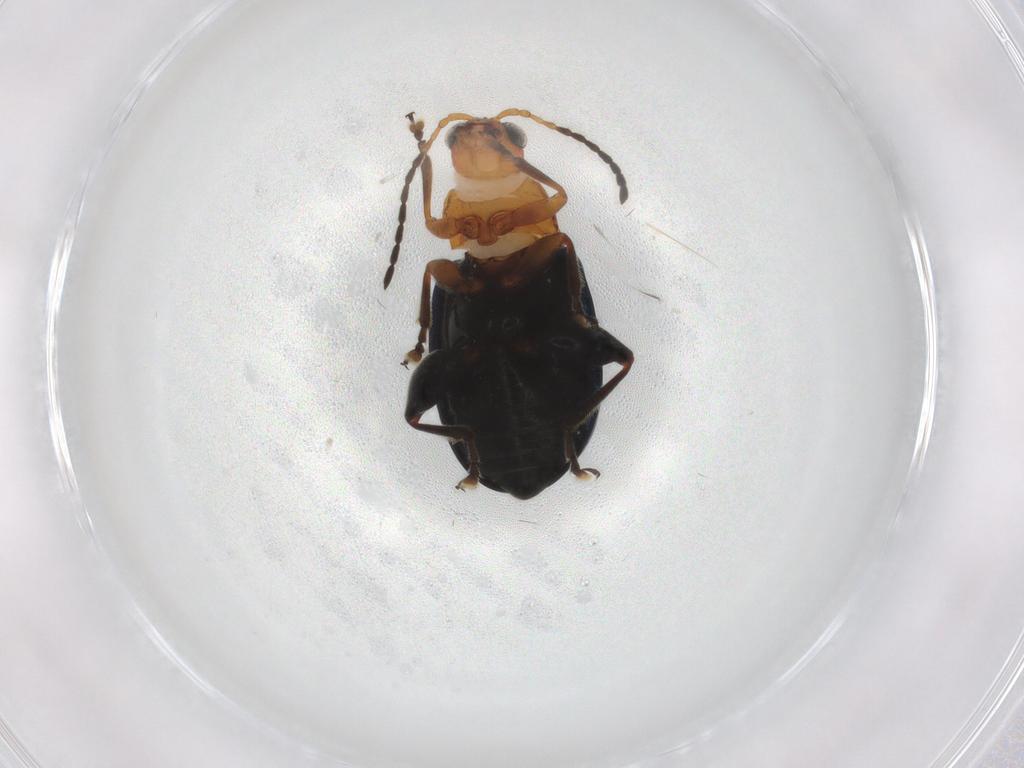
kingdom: Animalia
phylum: Arthropoda
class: Insecta
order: Coleoptera
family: Chrysomelidae
